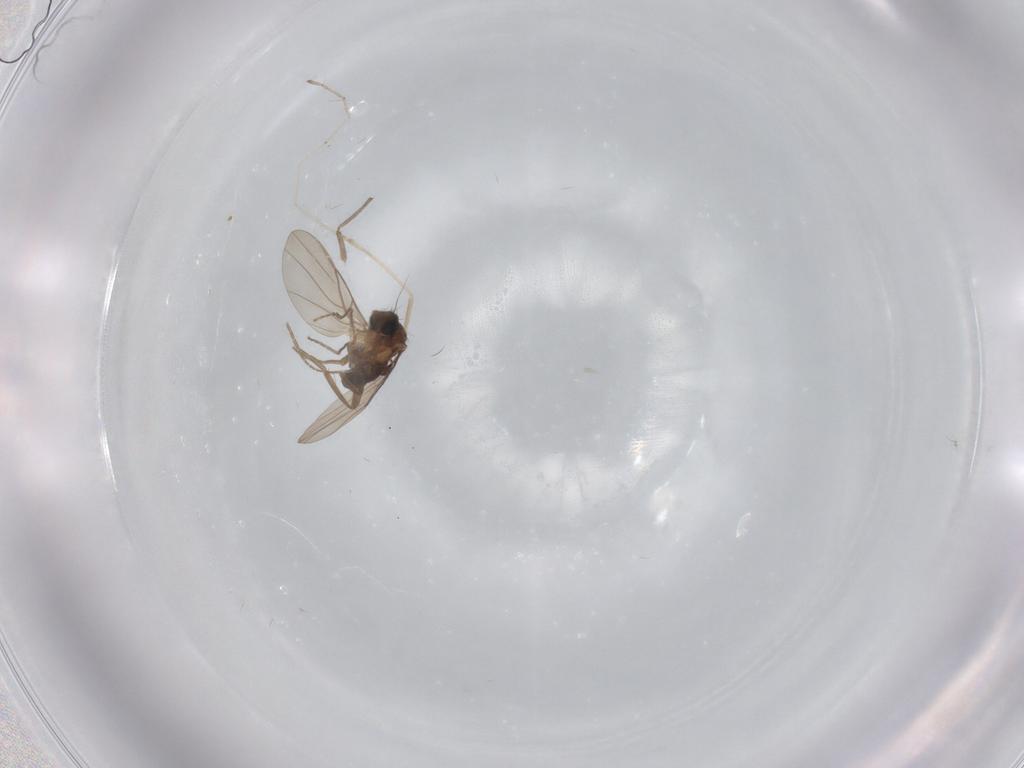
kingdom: Animalia
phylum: Arthropoda
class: Insecta
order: Diptera
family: Phoridae
